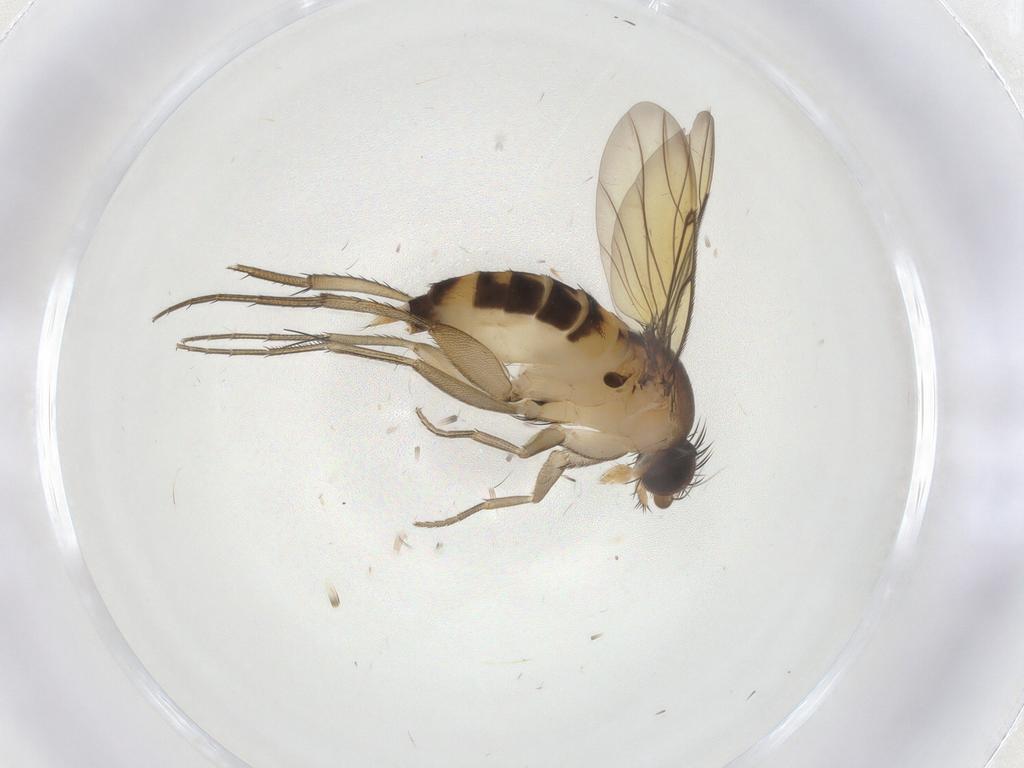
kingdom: Animalia
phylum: Arthropoda
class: Insecta
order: Diptera
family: Phoridae
